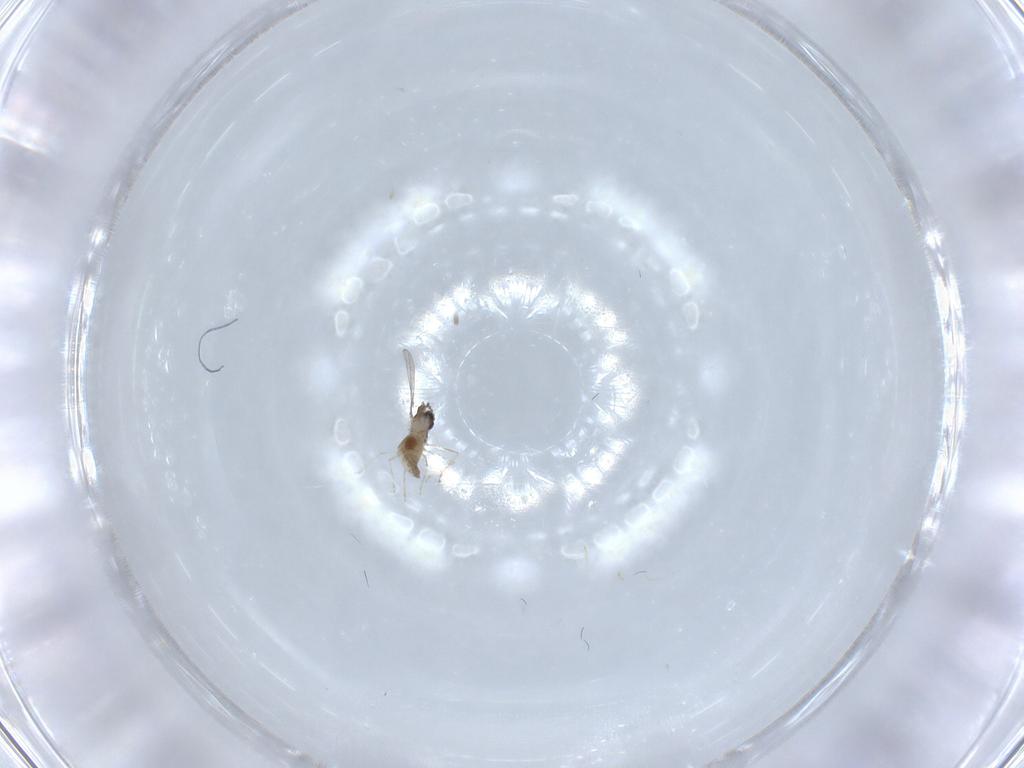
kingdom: Animalia
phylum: Arthropoda
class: Insecta
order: Diptera
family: Cecidomyiidae
